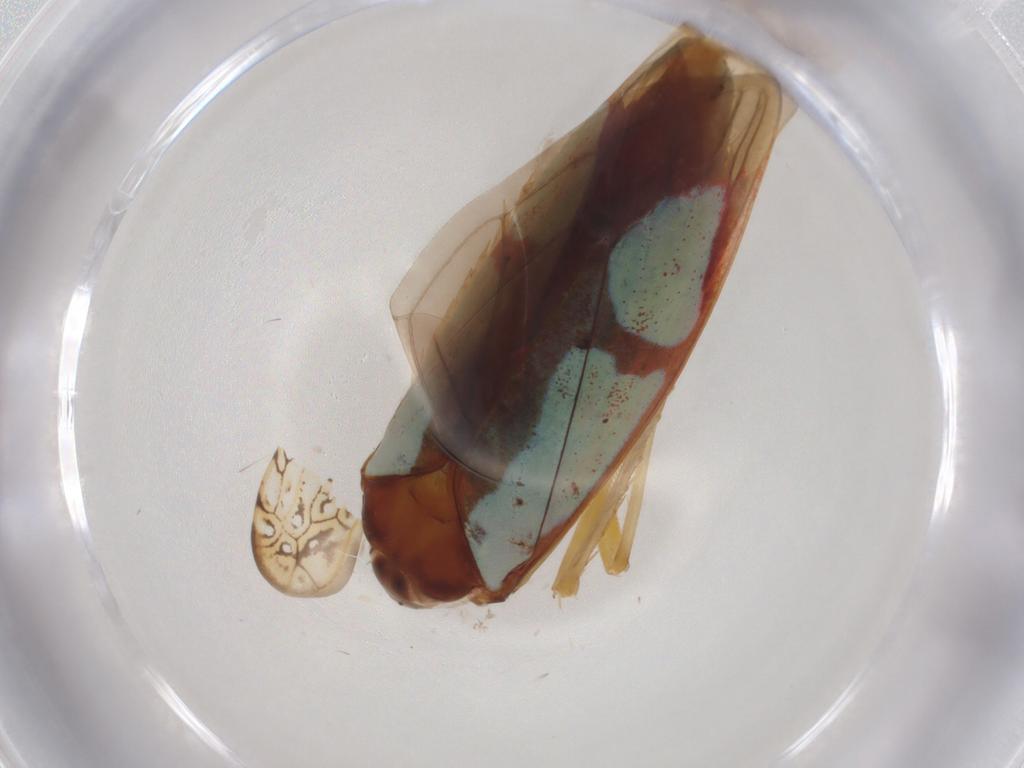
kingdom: Animalia
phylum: Arthropoda
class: Insecta
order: Hemiptera
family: Cicadellidae
